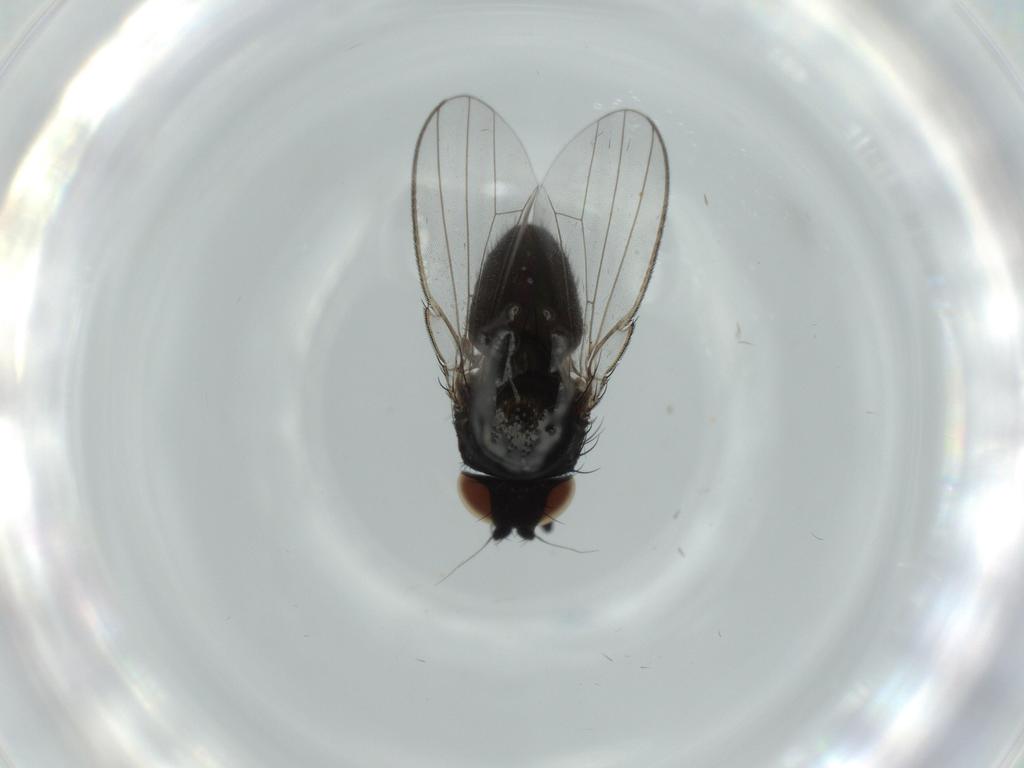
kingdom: Animalia
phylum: Arthropoda
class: Insecta
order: Diptera
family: Milichiidae
